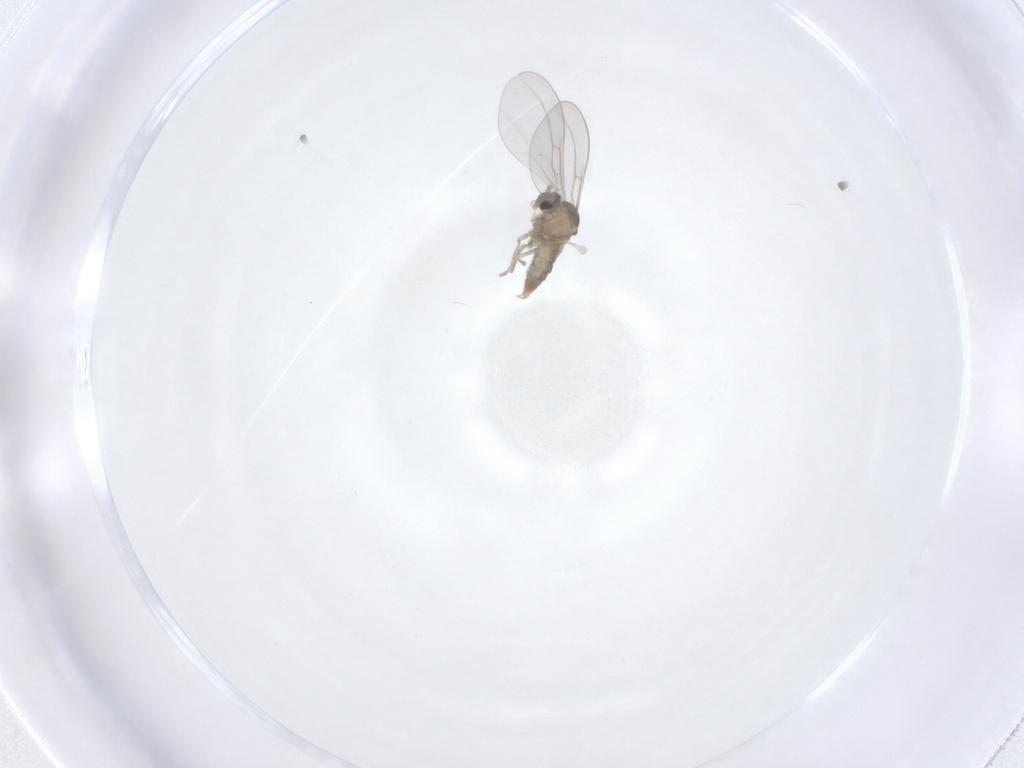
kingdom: Animalia
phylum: Arthropoda
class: Insecta
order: Diptera
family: Cecidomyiidae
